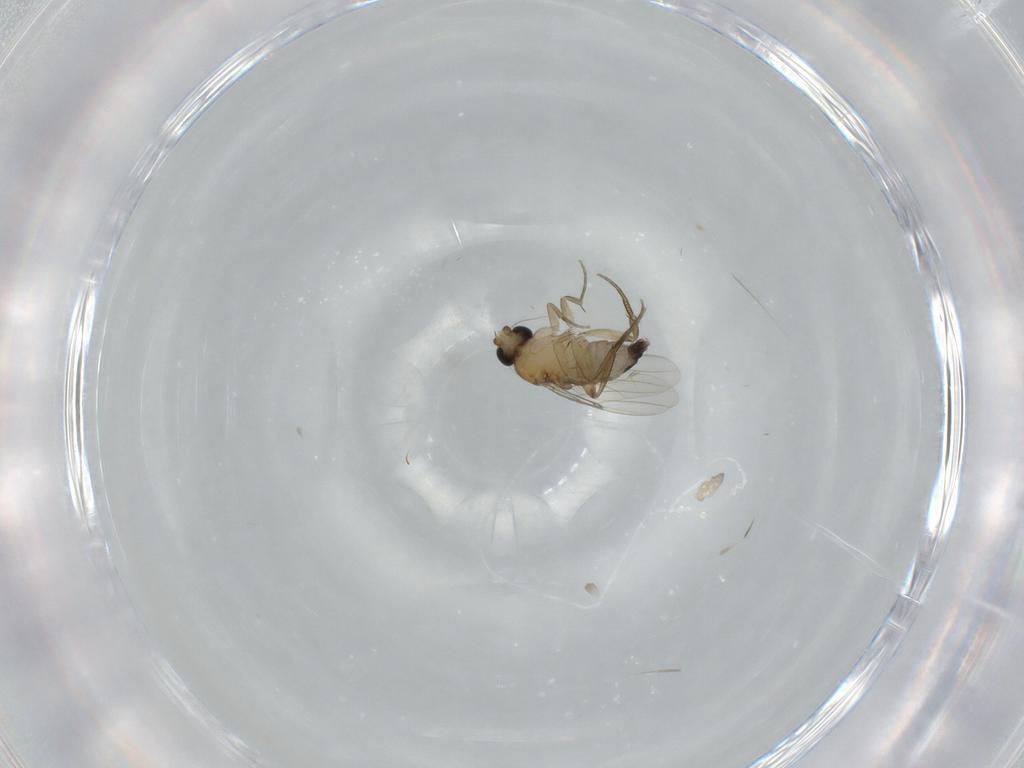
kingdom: Animalia
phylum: Arthropoda
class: Insecta
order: Diptera
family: Phoridae
